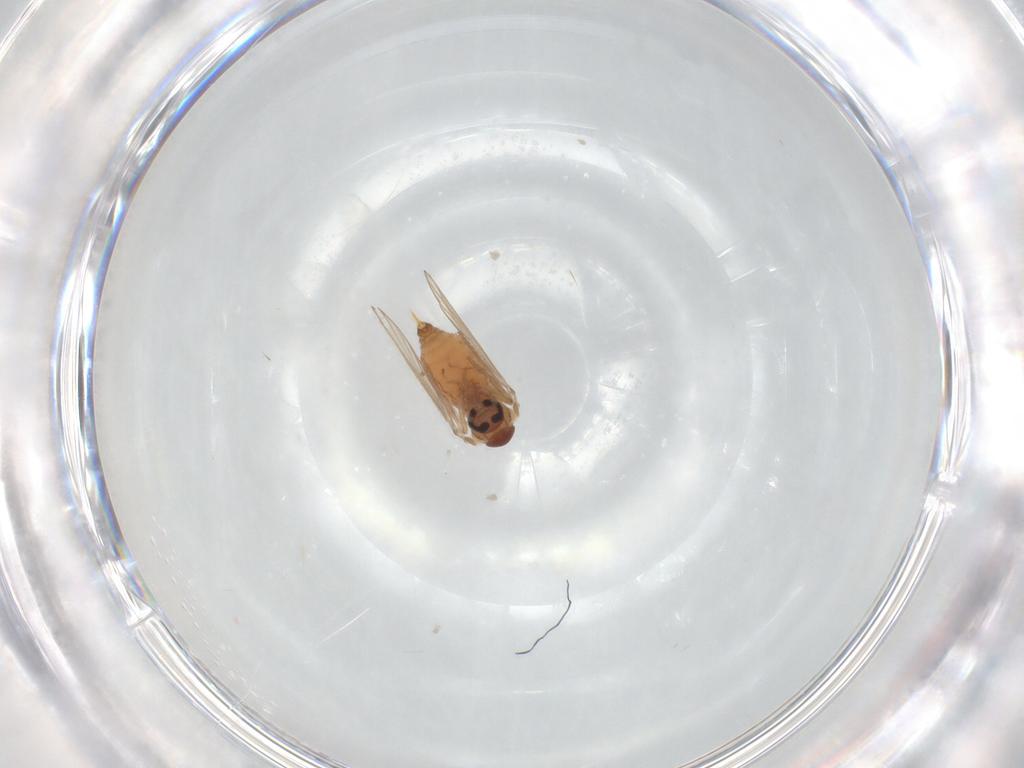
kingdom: Animalia
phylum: Arthropoda
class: Insecta
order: Diptera
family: Psychodidae
